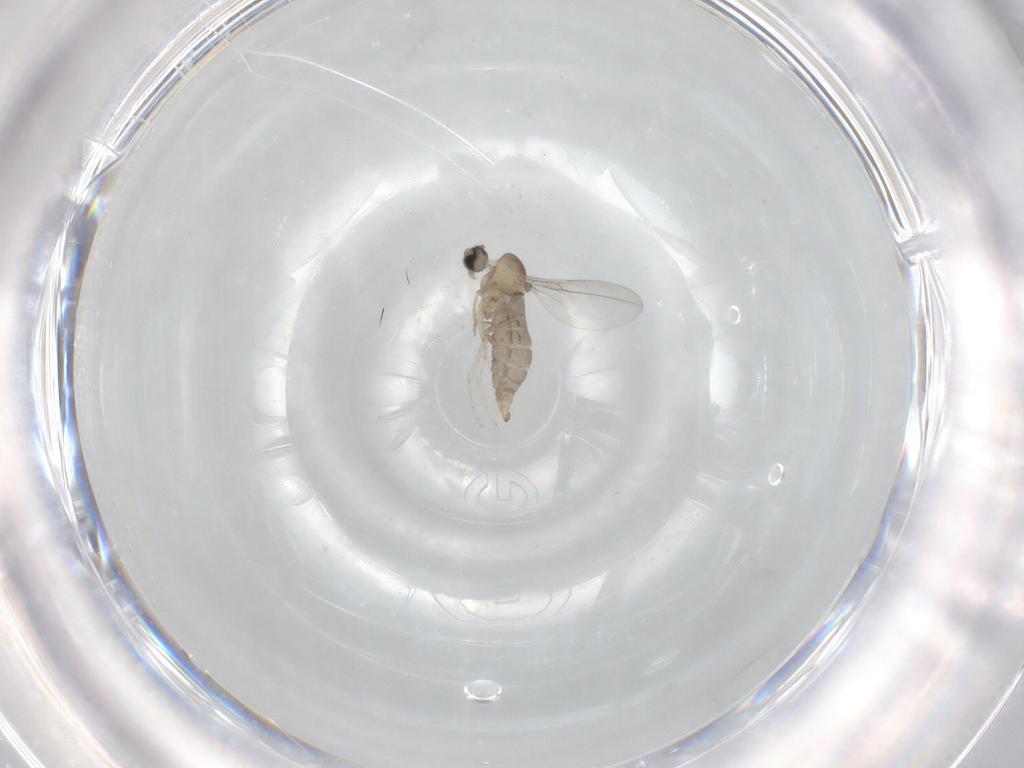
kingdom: Animalia
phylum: Arthropoda
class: Insecta
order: Diptera
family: Cecidomyiidae
